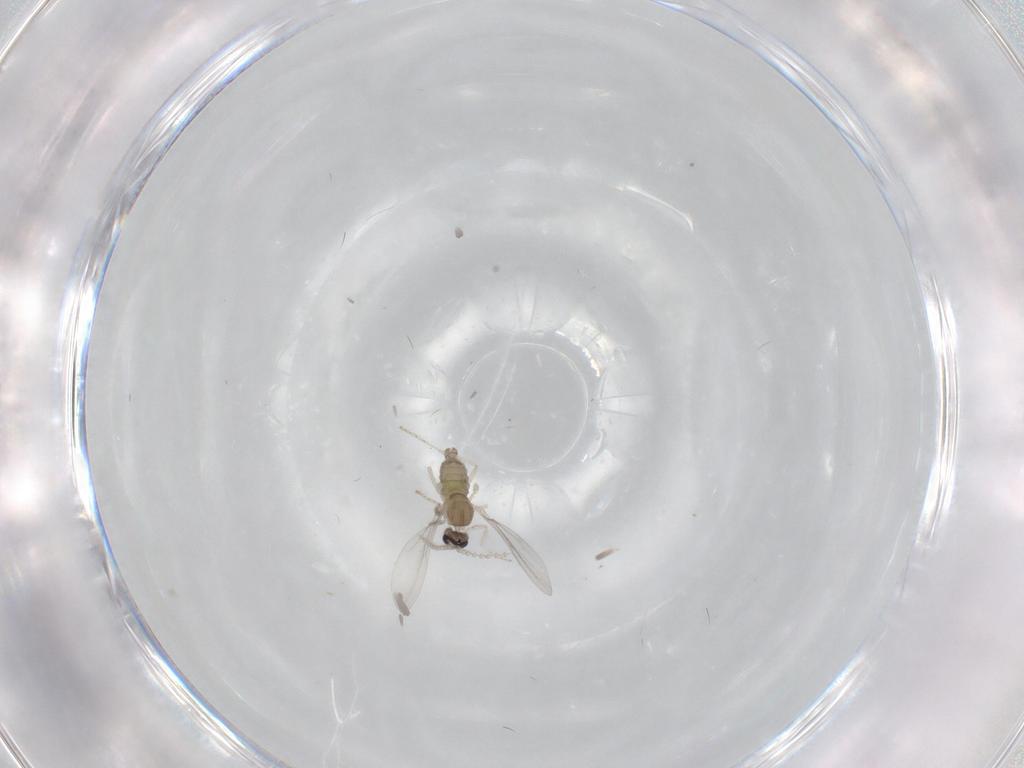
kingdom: Animalia
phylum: Arthropoda
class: Insecta
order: Diptera
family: Cecidomyiidae
